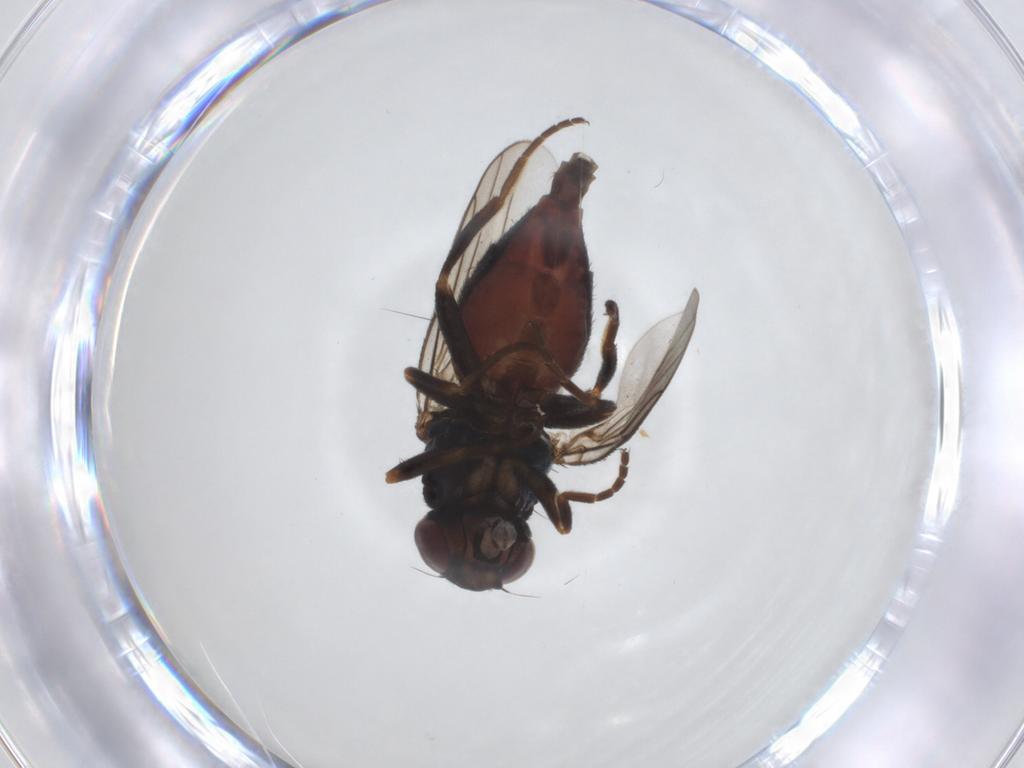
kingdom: Animalia
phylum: Arthropoda
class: Insecta
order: Diptera
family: Chloropidae
